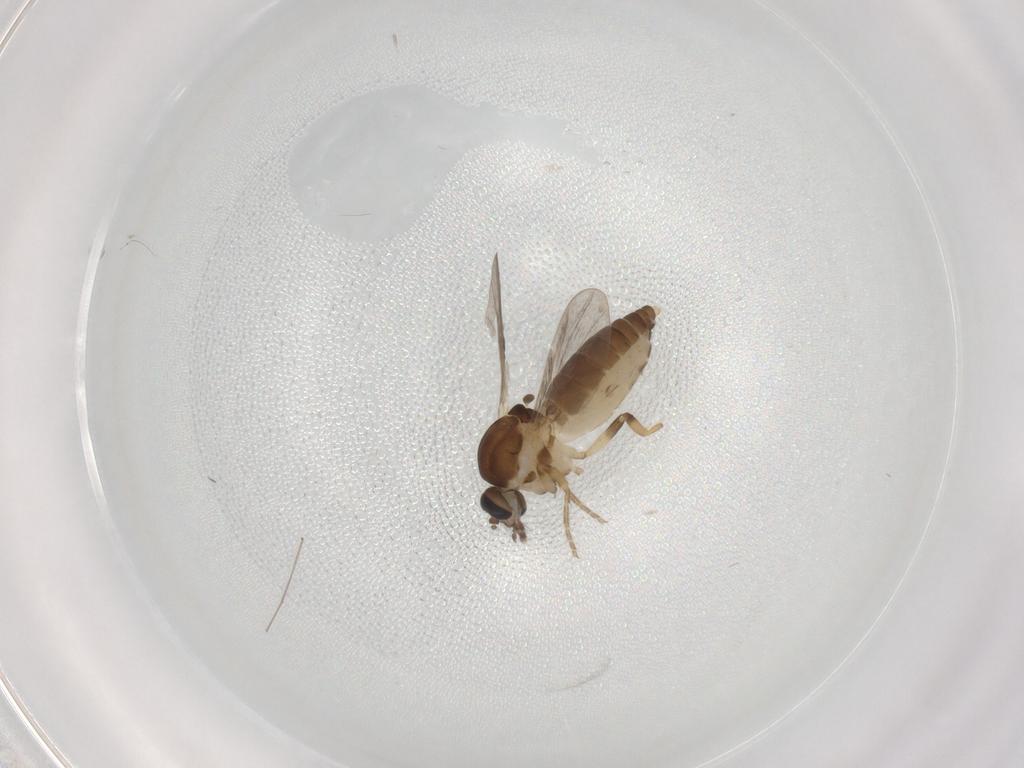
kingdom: Animalia
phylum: Arthropoda
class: Insecta
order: Diptera
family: Ceratopogonidae
